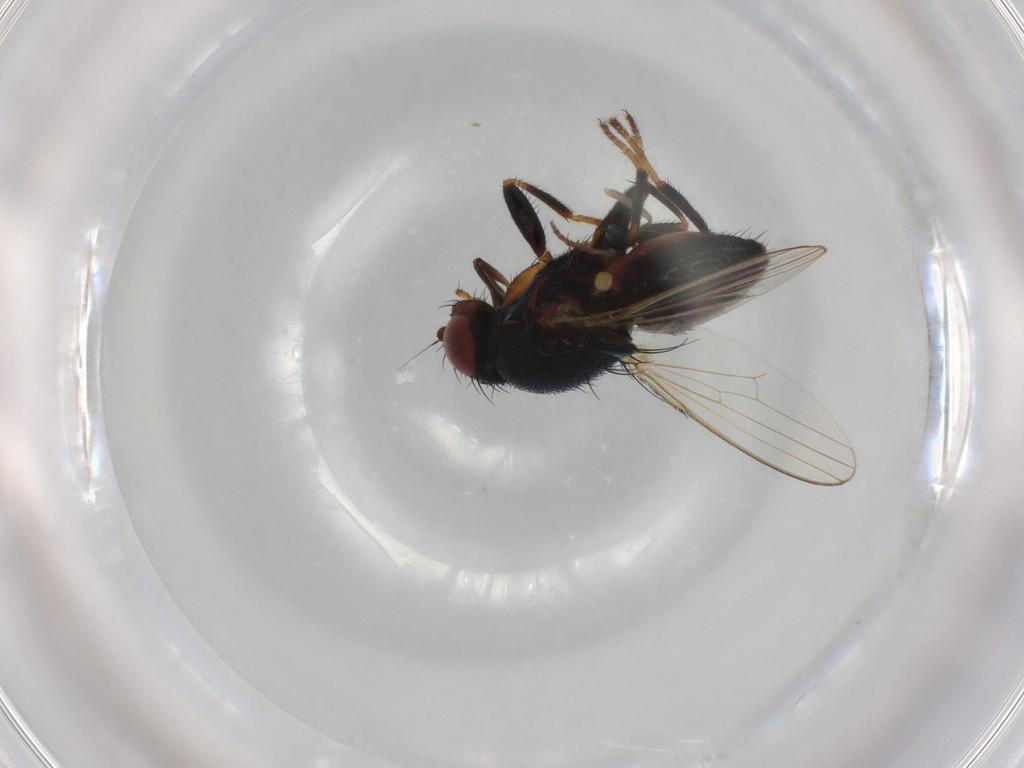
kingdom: Animalia
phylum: Arthropoda
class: Insecta
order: Diptera
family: Milichiidae
